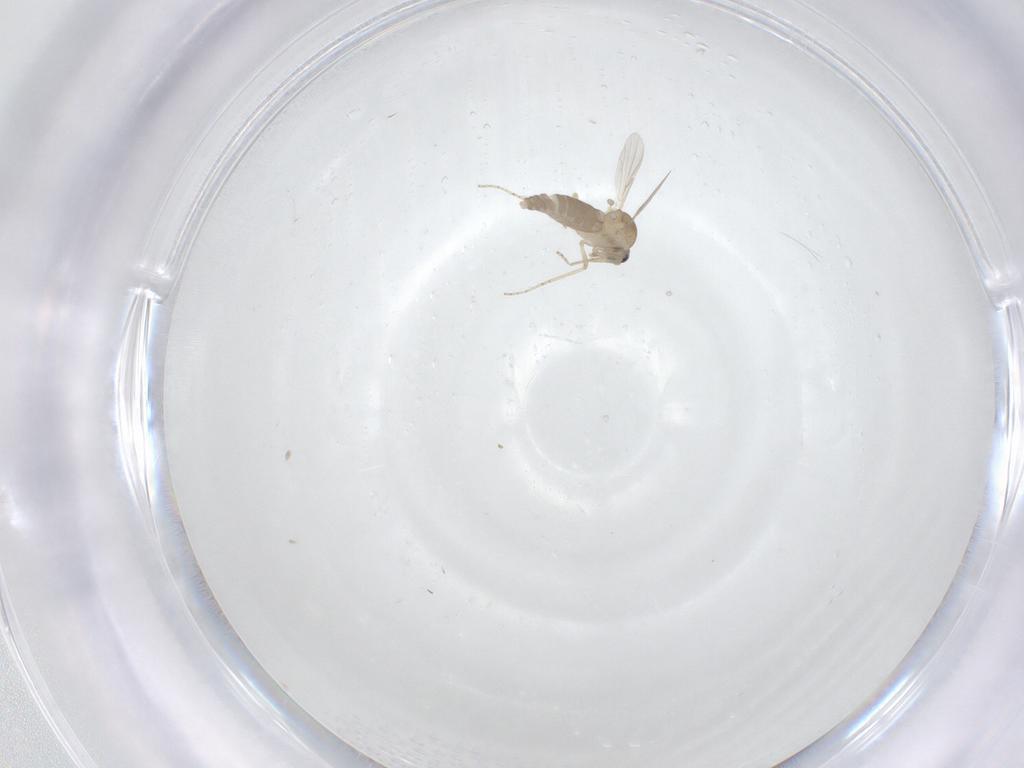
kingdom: Animalia
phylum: Arthropoda
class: Insecta
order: Diptera
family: Ceratopogonidae
